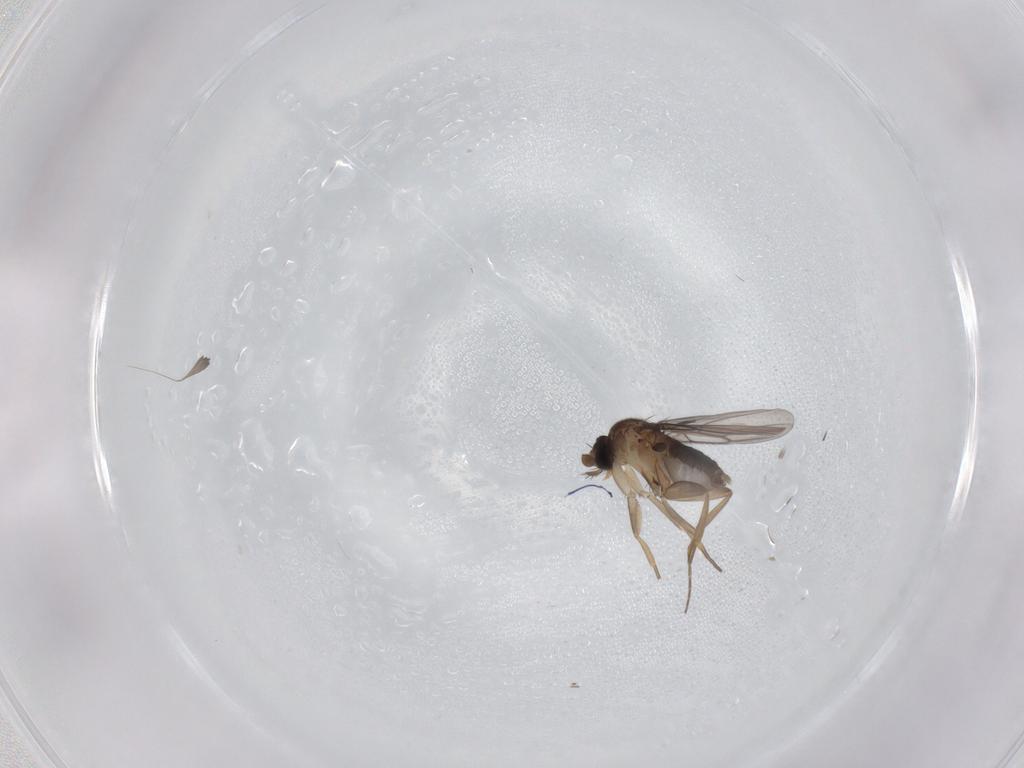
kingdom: Animalia
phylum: Arthropoda
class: Insecta
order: Diptera
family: Phoridae
